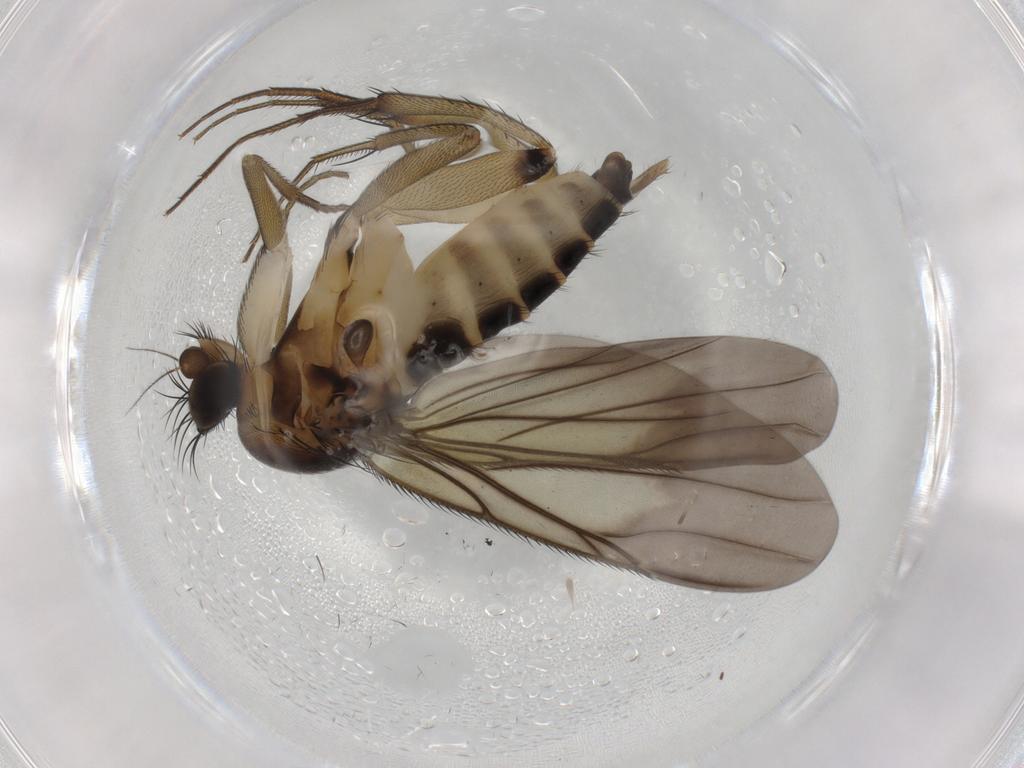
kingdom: Animalia
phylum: Arthropoda
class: Insecta
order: Diptera
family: Phoridae
